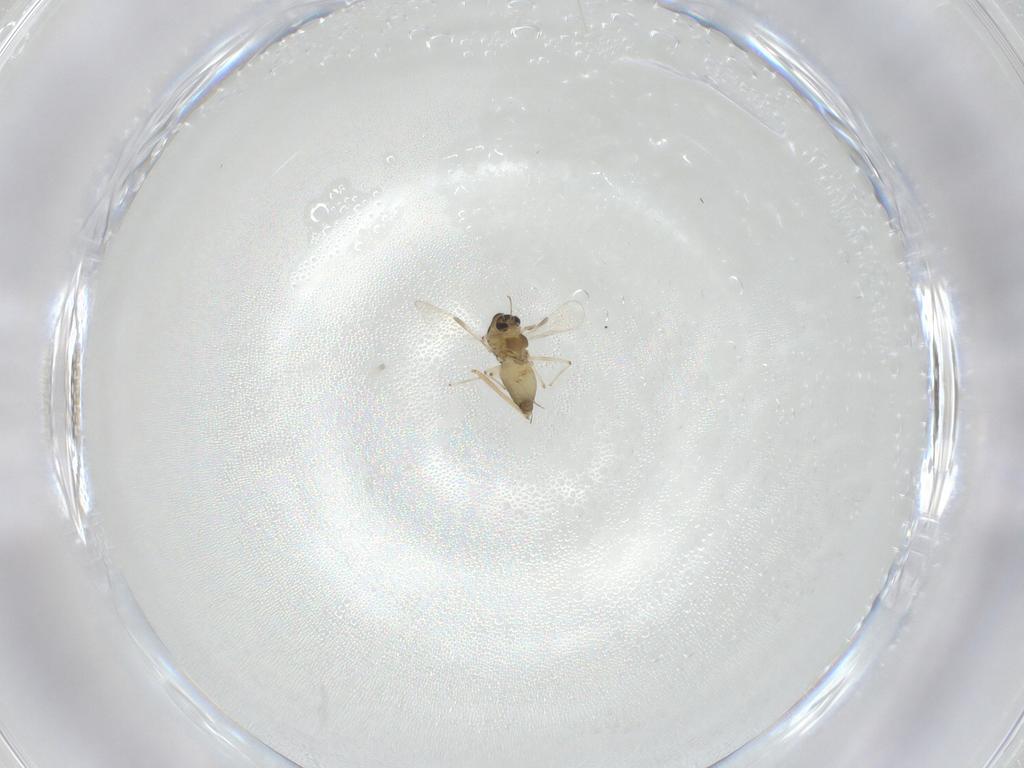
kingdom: Animalia
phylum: Arthropoda
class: Insecta
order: Diptera
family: Chironomidae
